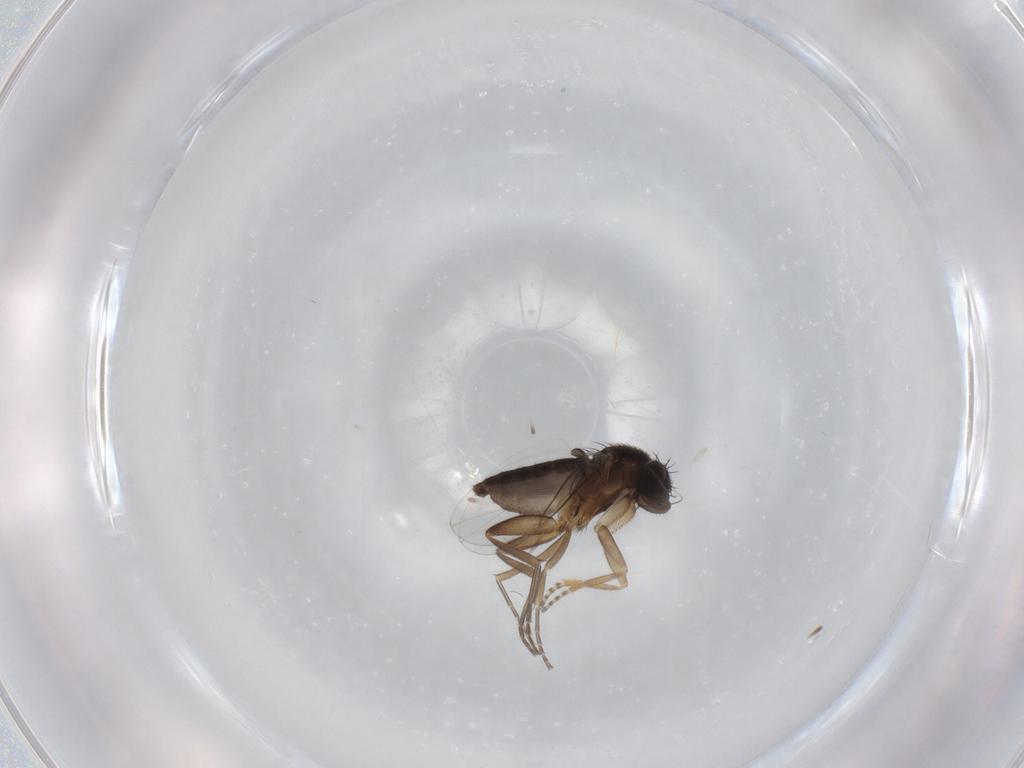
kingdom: Animalia
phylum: Arthropoda
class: Insecta
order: Diptera
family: Phoridae
